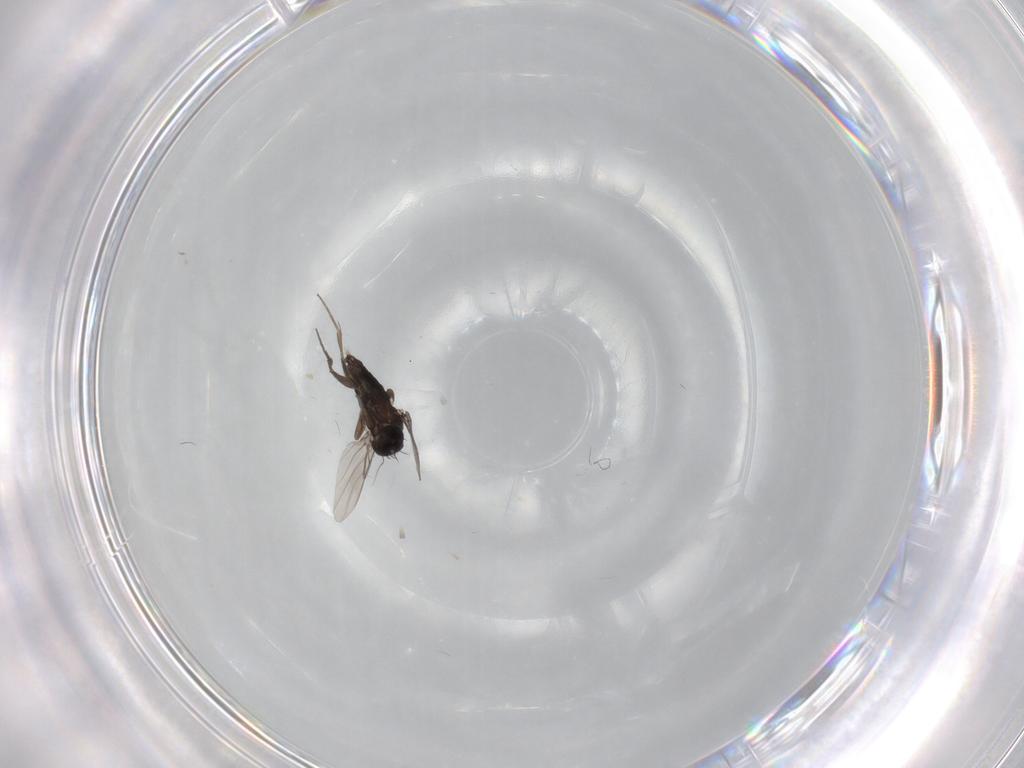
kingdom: Animalia
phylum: Arthropoda
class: Insecta
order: Diptera
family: Phoridae
